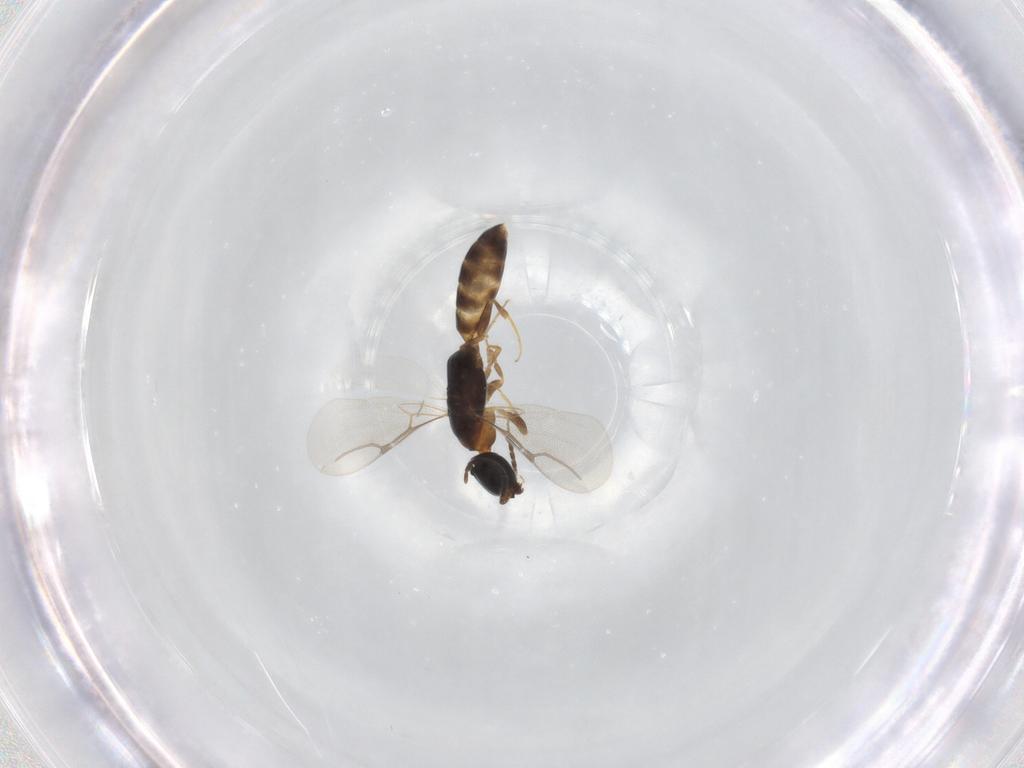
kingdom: Animalia
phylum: Arthropoda
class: Insecta
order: Hymenoptera
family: Bethylidae
